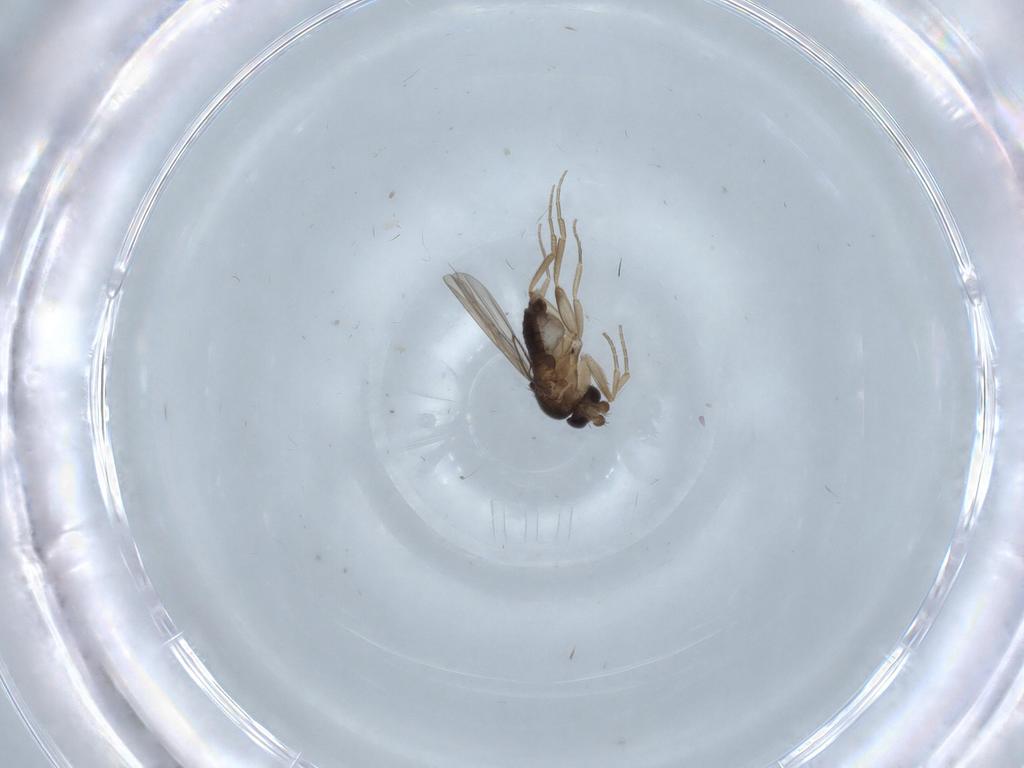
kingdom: Animalia
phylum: Arthropoda
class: Insecta
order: Diptera
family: Phoridae
